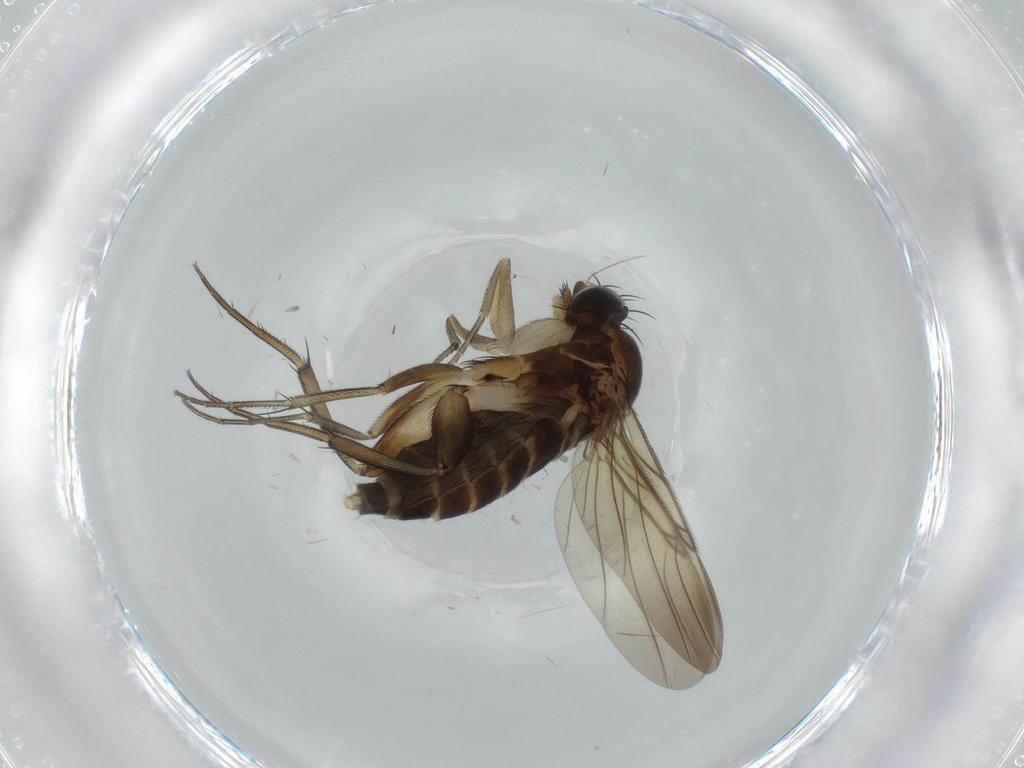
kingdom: Animalia
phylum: Arthropoda
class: Insecta
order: Diptera
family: Phoridae
